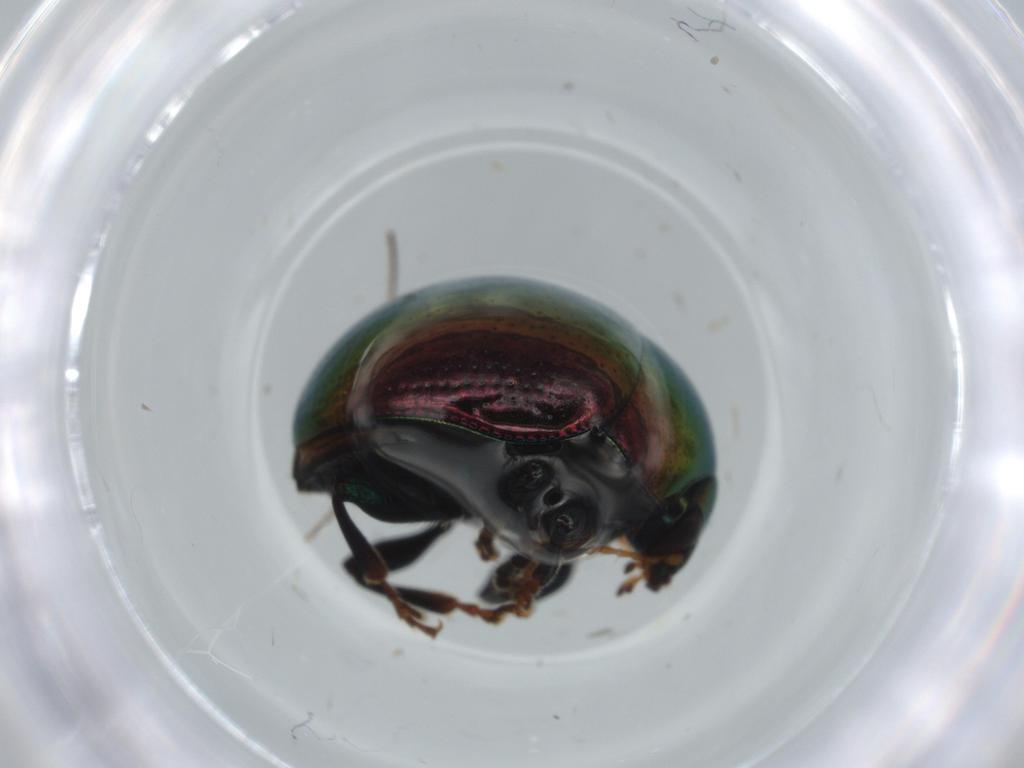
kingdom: Animalia
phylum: Arthropoda
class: Insecta
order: Coleoptera
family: Chrysomelidae
